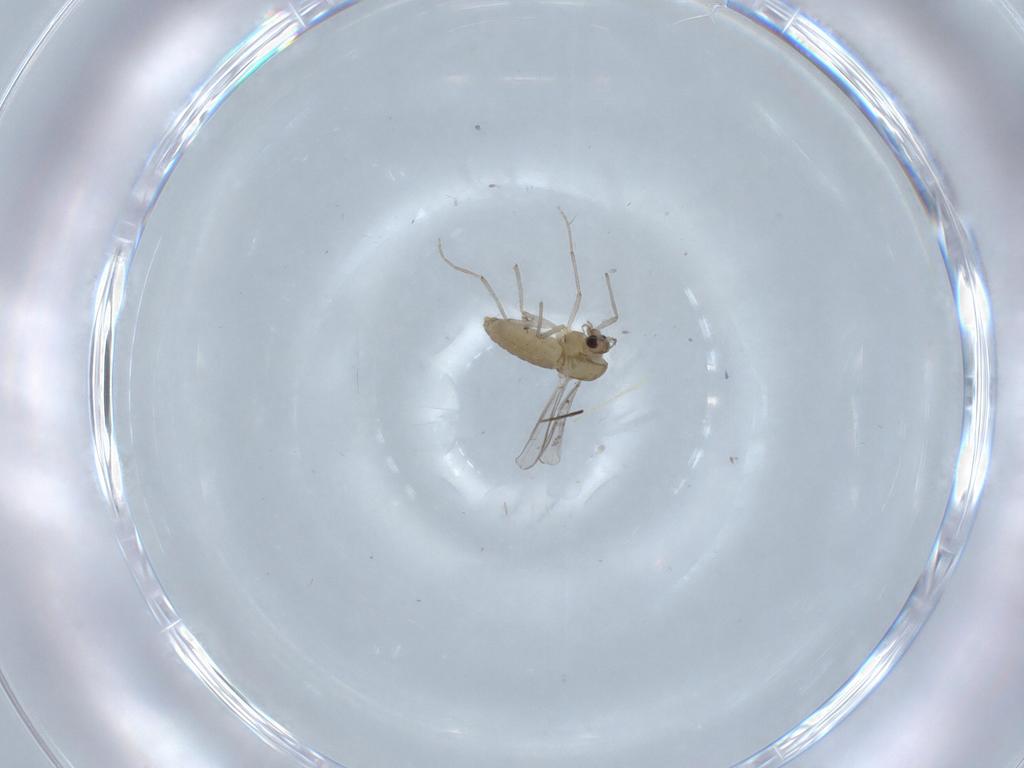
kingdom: Animalia
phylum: Arthropoda
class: Insecta
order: Diptera
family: Chironomidae
